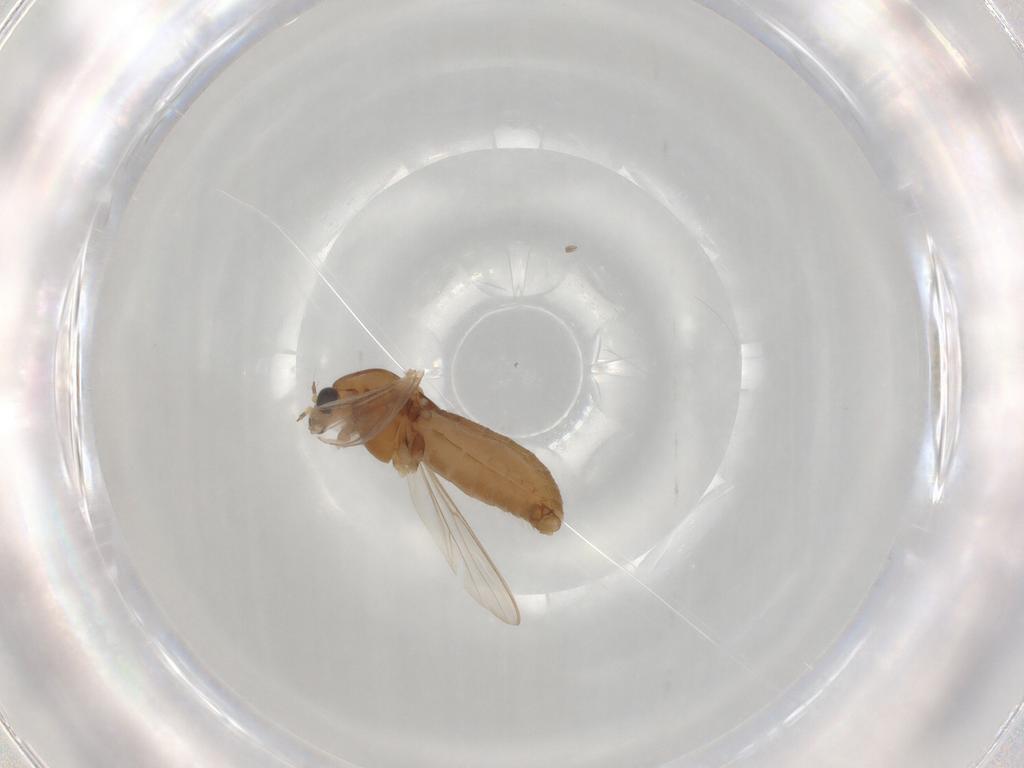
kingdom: Animalia
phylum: Arthropoda
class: Insecta
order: Diptera
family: Chironomidae
